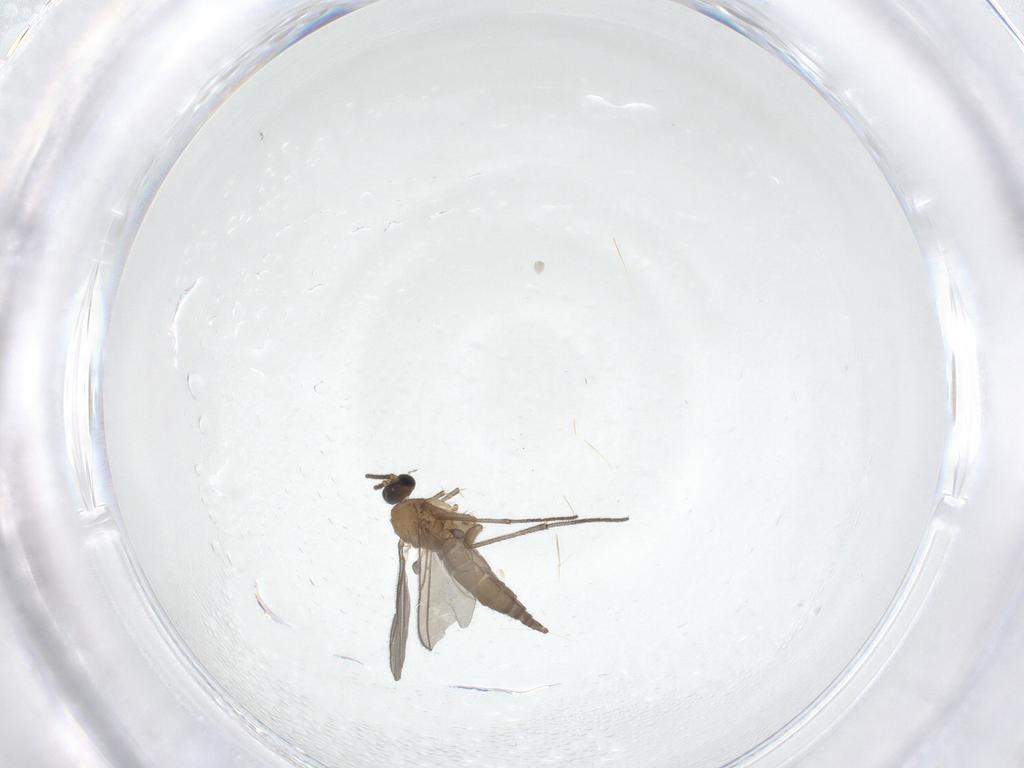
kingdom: Animalia
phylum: Arthropoda
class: Insecta
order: Diptera
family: Sciaridae
